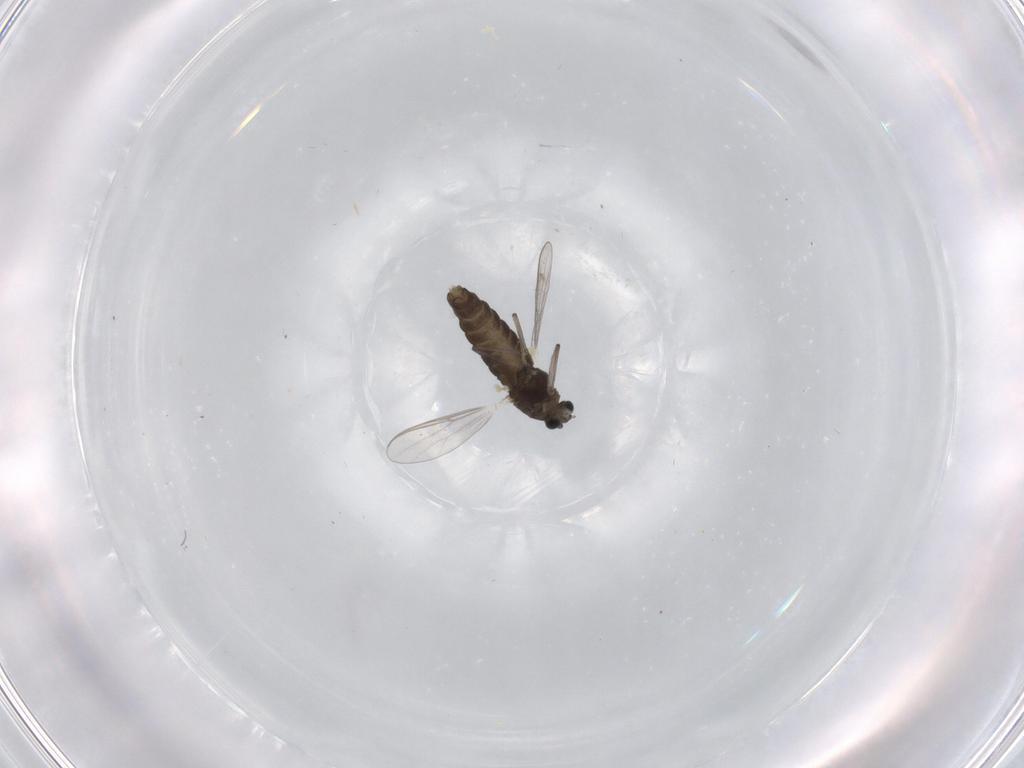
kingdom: Animalia
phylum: Arthropoda
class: Insecta
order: Diptera
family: Chironomidae
